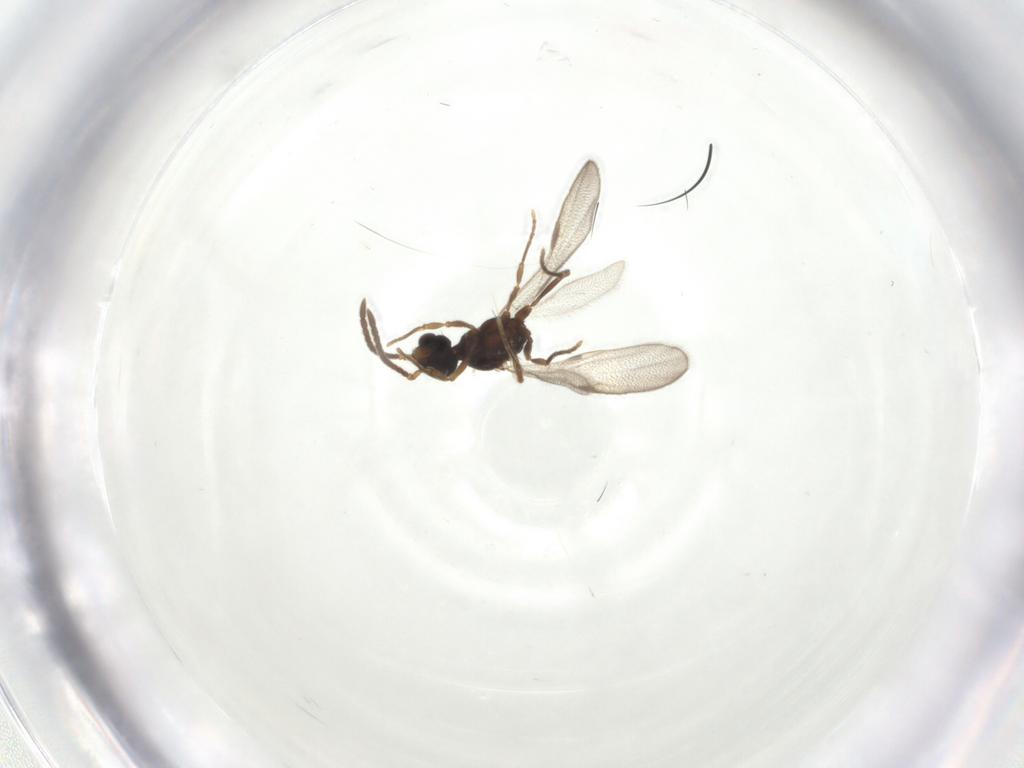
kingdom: Animalia
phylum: Arthropoda
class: Insecta
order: Hymenoptera
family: Formicidae
